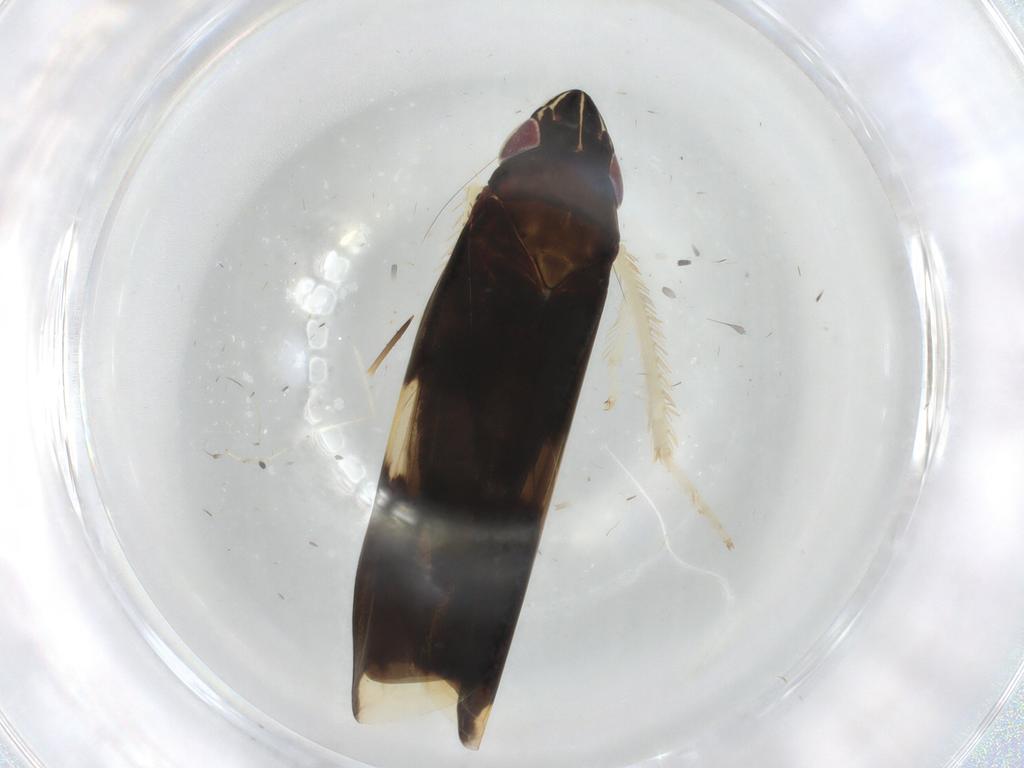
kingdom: Animalia
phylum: Arthropoda
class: Insecta
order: Hemiptera
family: Cicadellidae
